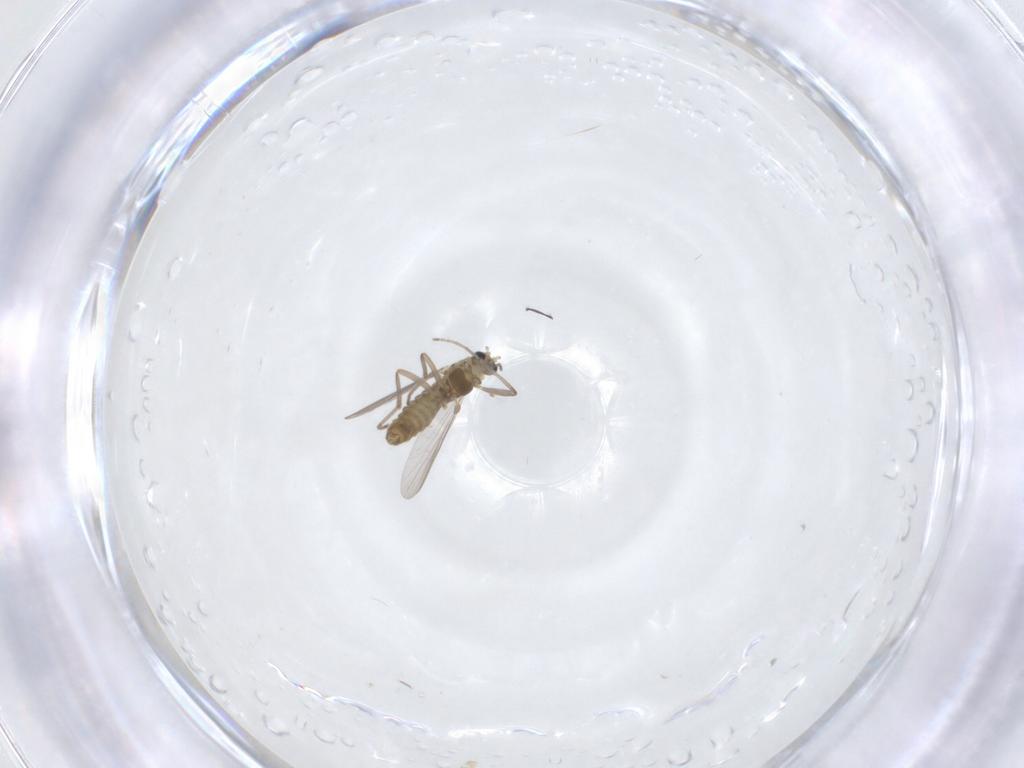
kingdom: Animalia
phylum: Arthropoda
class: Insecta
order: Diptera
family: Chironomidae
